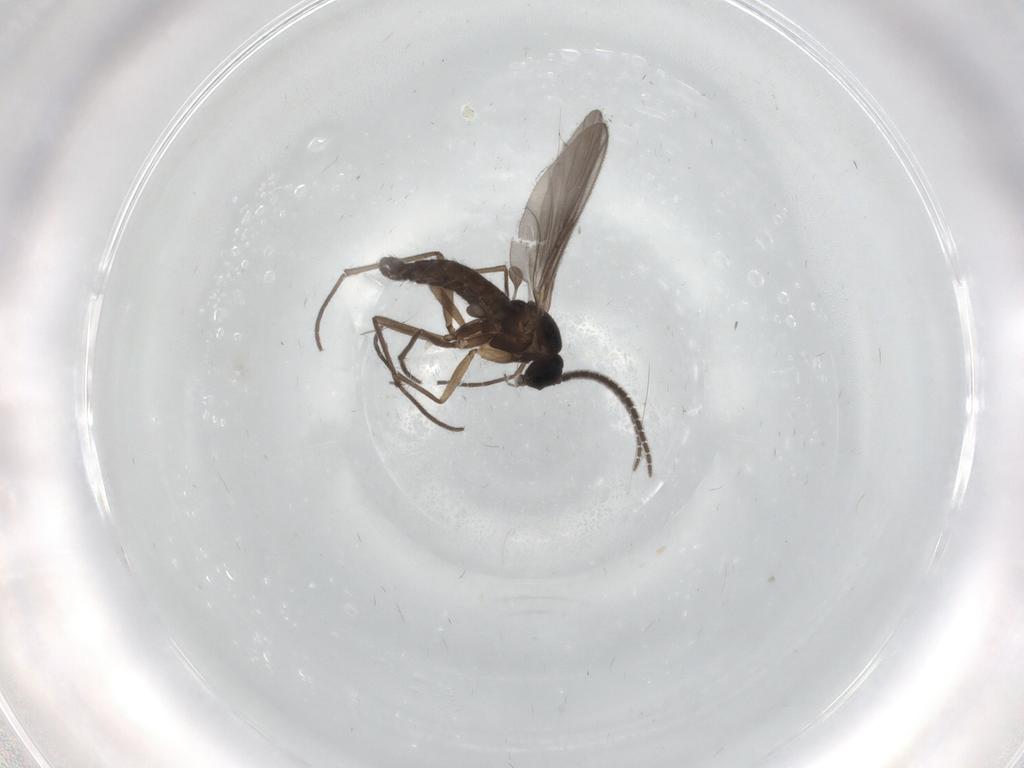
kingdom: Animalia
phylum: Arthropoda
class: Insecta
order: Diptera
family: Sciaridae
